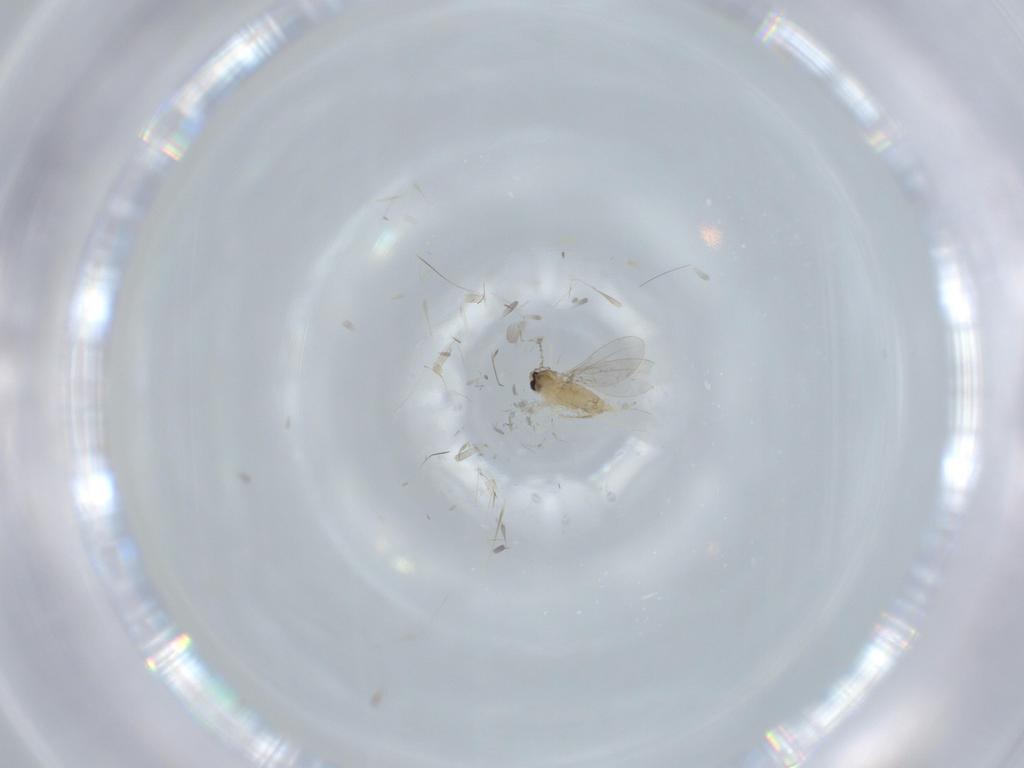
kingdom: Animalia
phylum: Arthropoda
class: Insecta
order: Diptera
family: Cecidomyiidae
